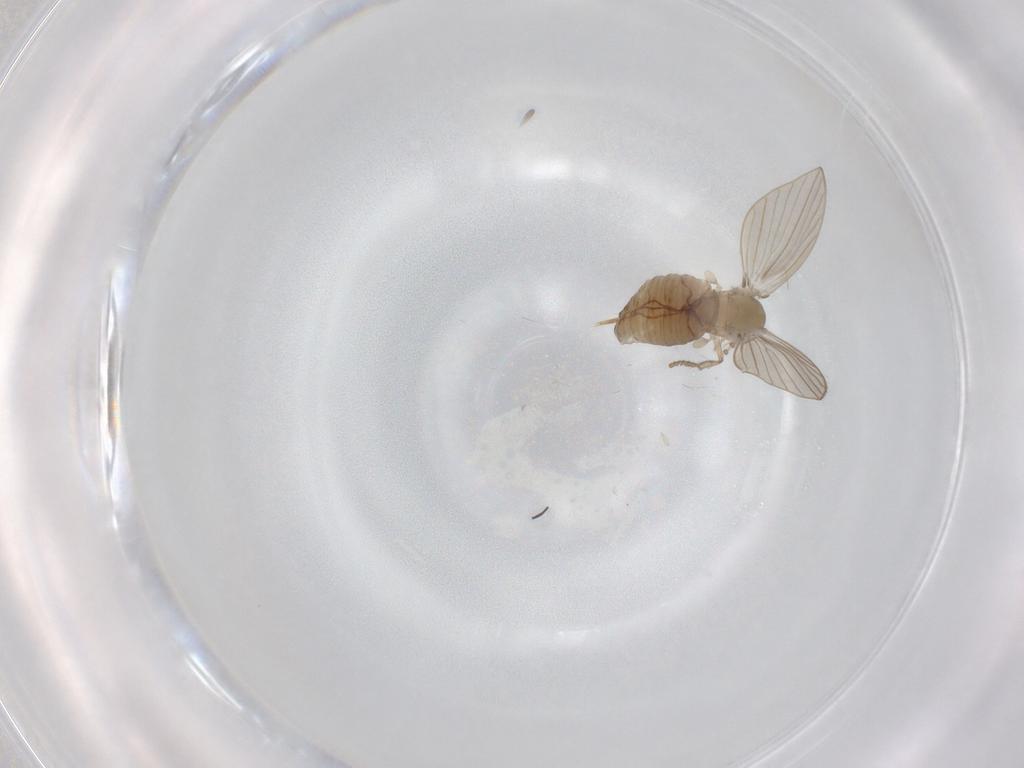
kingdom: Animalia
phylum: Arthropoda
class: Insecta
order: Diptera
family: Psychodidae
